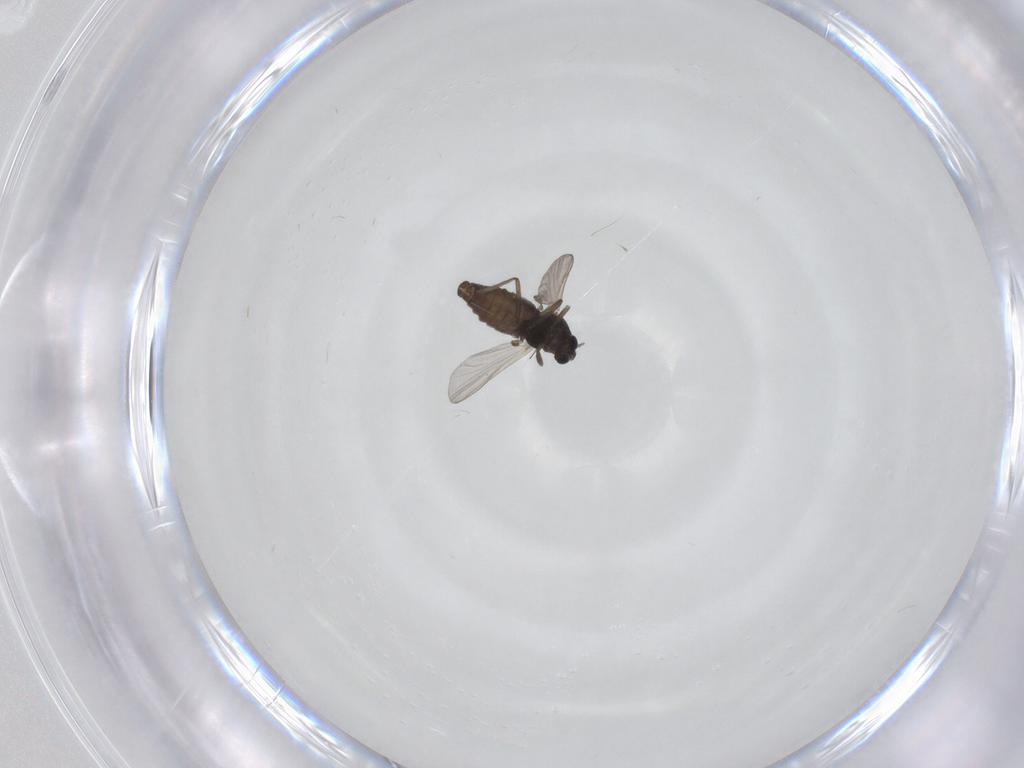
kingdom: Animalia
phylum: Arthropoda
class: Insecta
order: Diptera
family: Chironomidae
